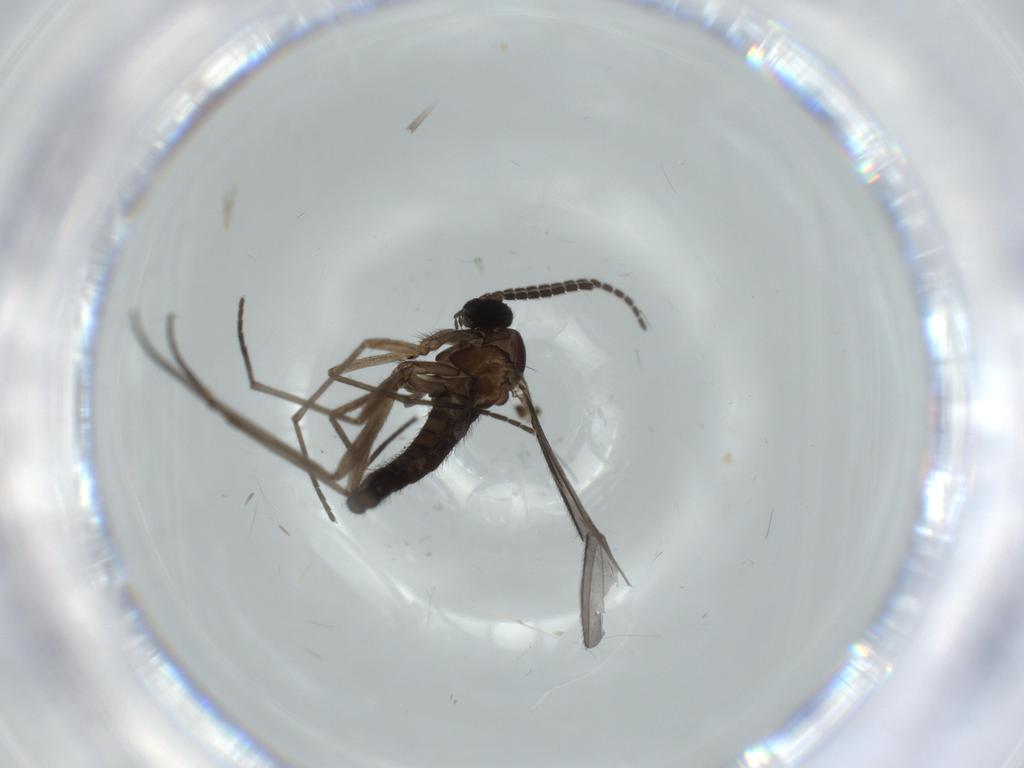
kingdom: Animalia
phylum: Arthropoda
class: Insecta
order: Diptera
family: Sciaridae
